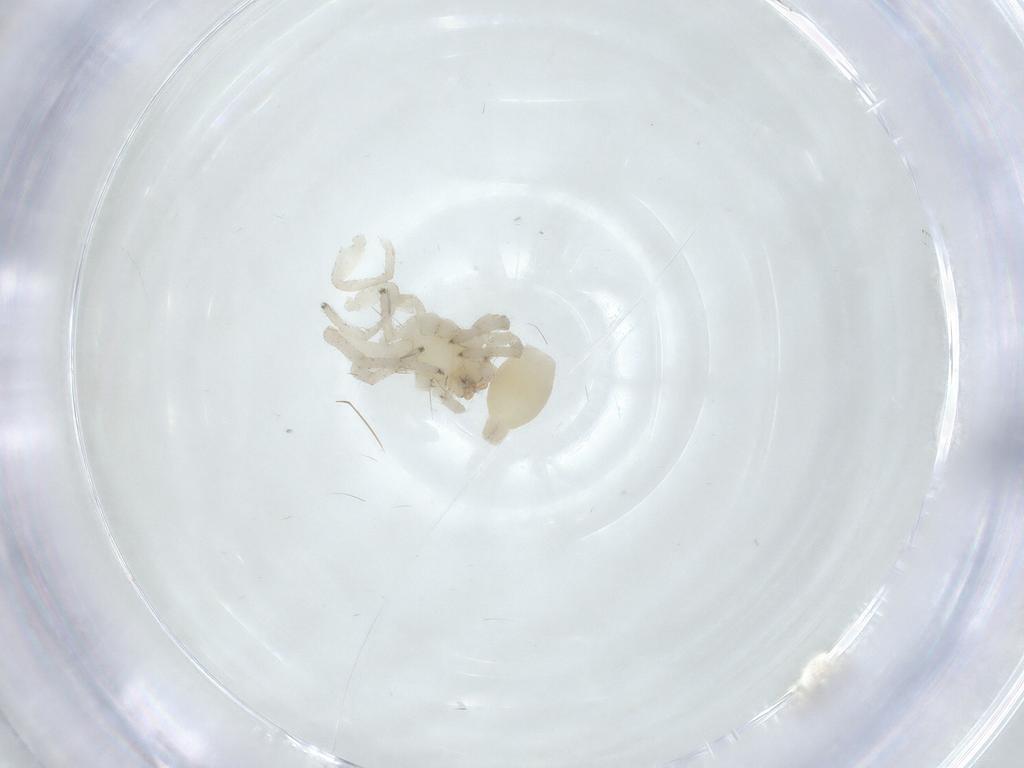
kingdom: Animalia
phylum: Arthropoda
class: Arachnida
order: Araneae
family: Clubionidae
